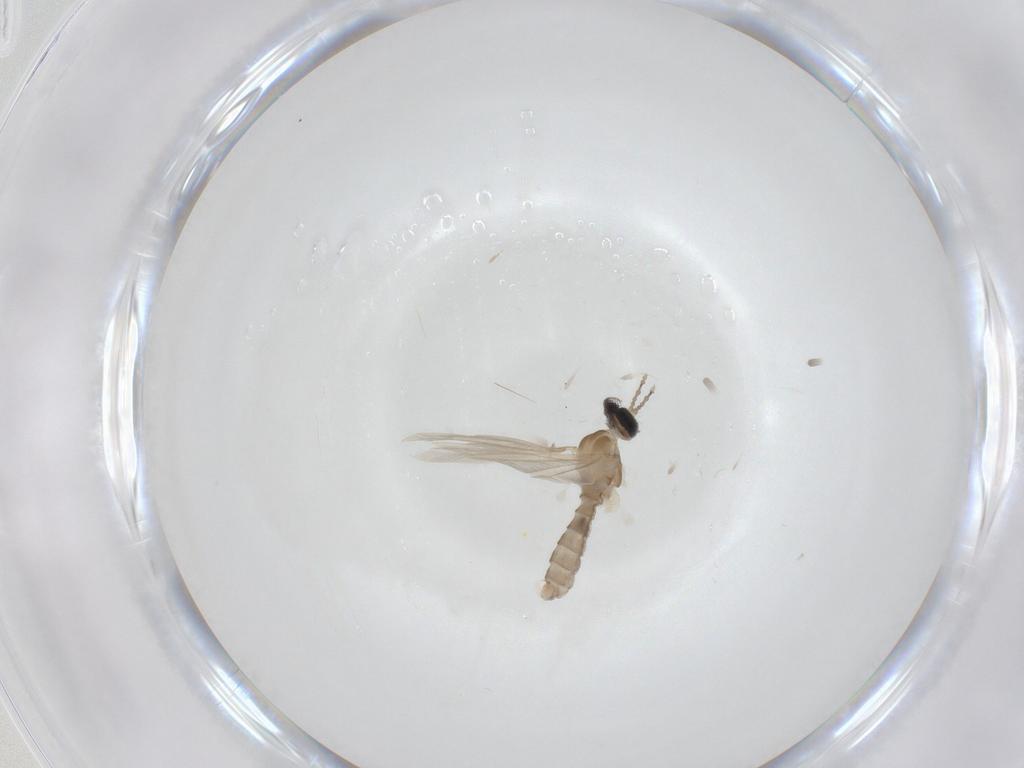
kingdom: Animalia
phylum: Arthropoda
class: Insecta
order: Diptera
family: Cecidomyiidae
